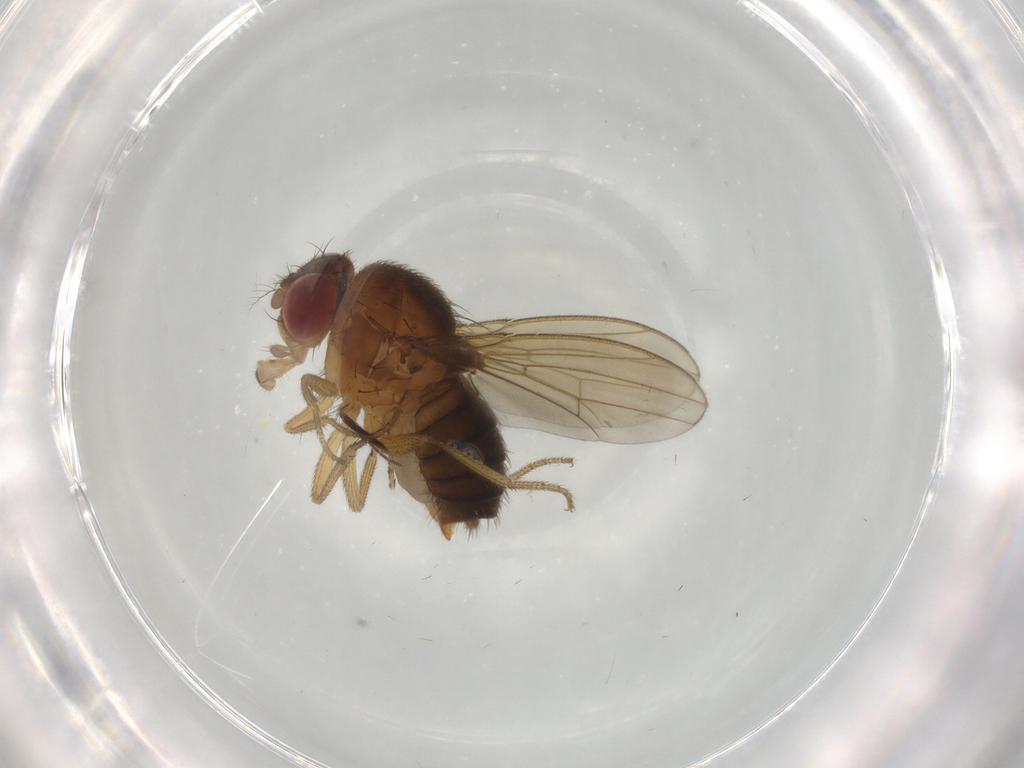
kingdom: Animalia
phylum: Arthropoda
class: Insecta
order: Diptera
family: Drosophilidae
